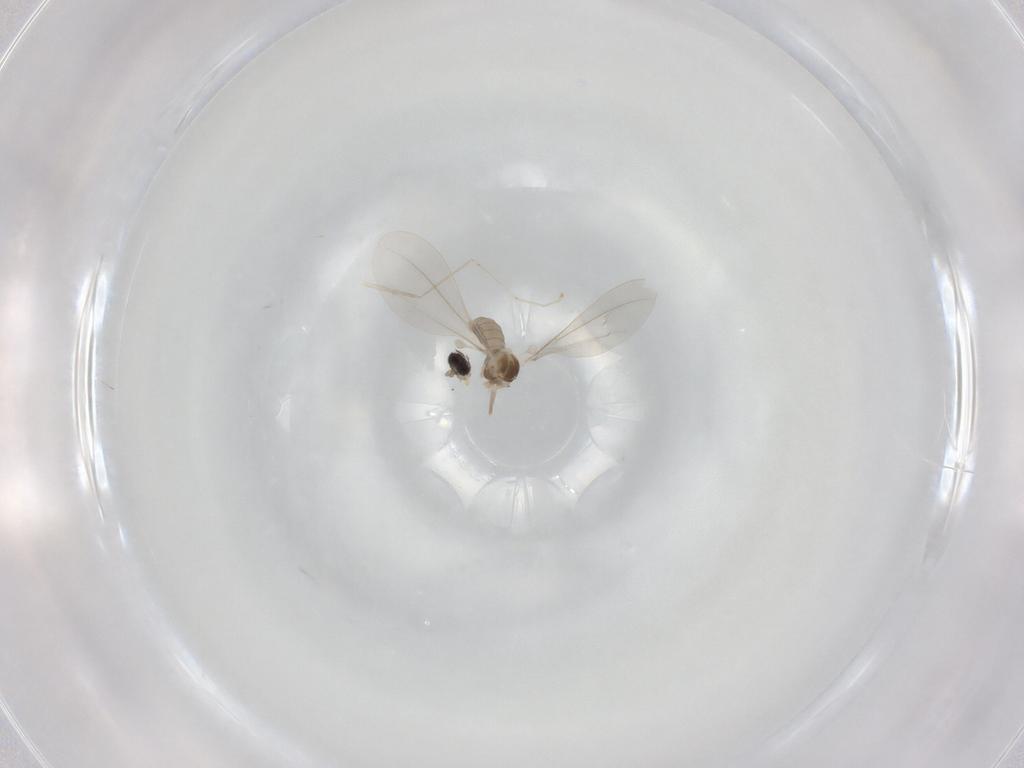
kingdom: Animalia
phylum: Arthropoda
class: Insecta
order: Diptera
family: Cecidomyiidae
